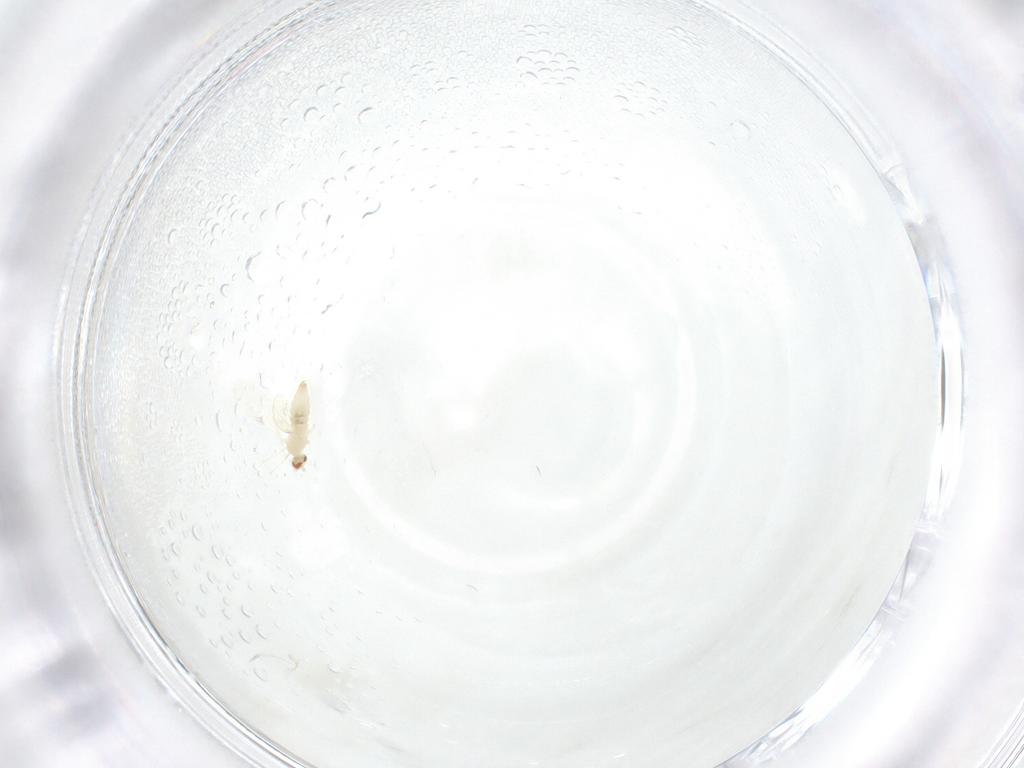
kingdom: Animalia
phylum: Arthropoda
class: Insecta
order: Diptera
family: Cecidomyiidae
